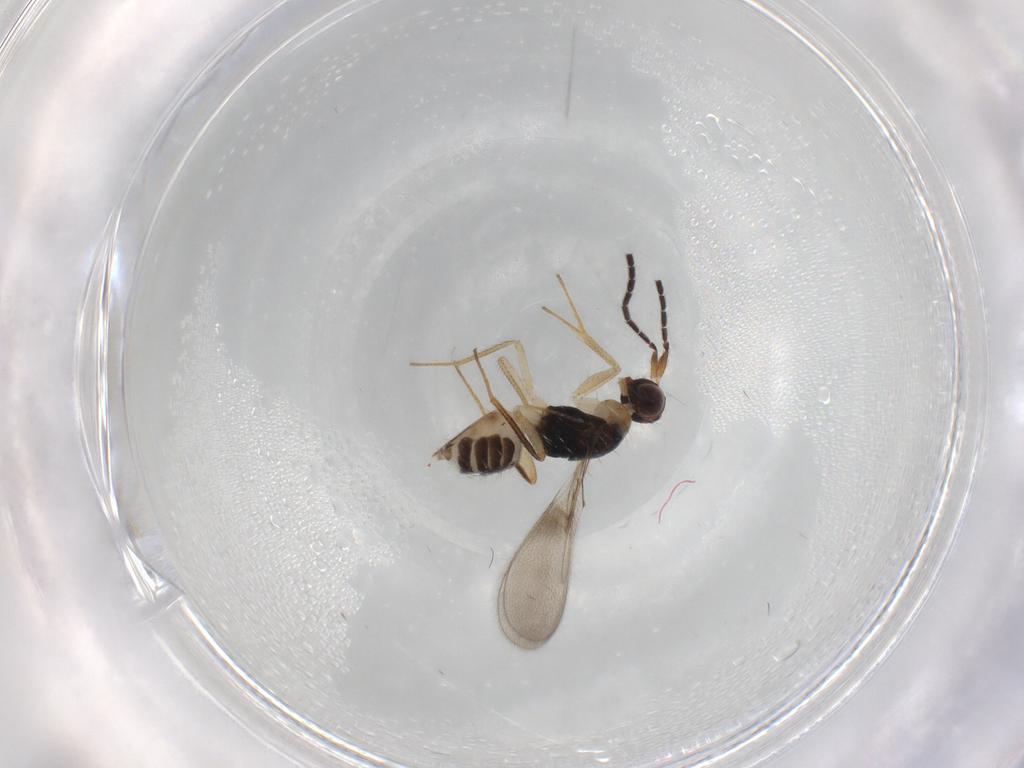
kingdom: Animalia
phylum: Arthropoda
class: Insecta
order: Hymenoptera
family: Mymaridae
